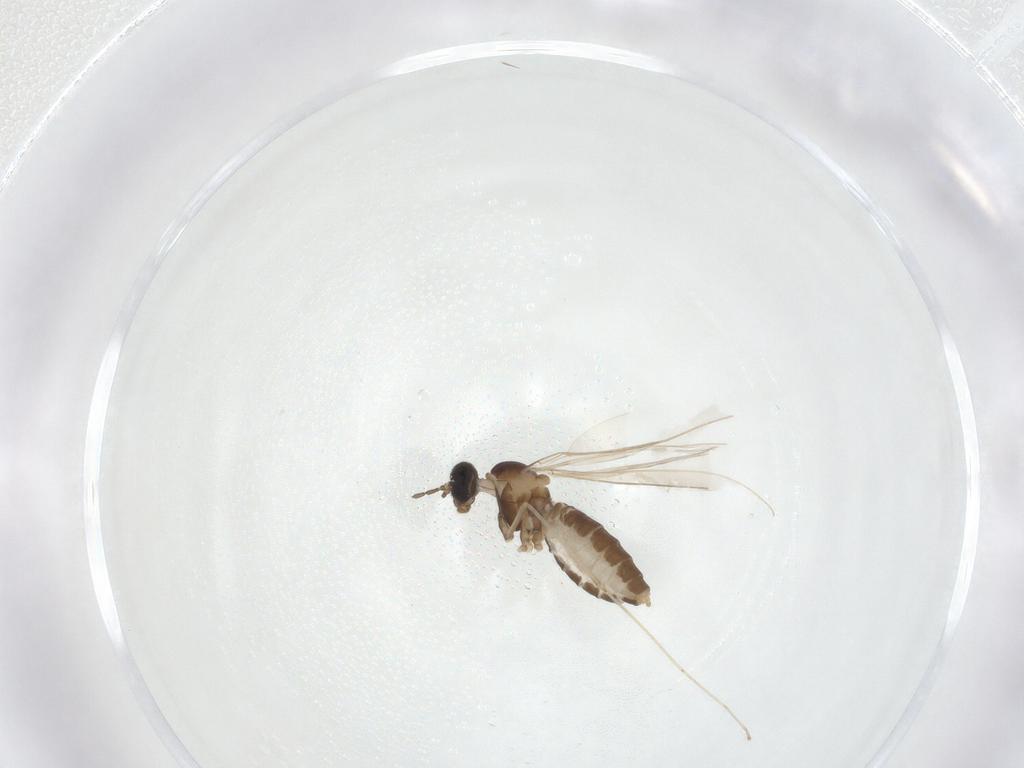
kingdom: Animalia
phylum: Arthropoda
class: Insecta
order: Diptera
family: Cecidomyiidae
